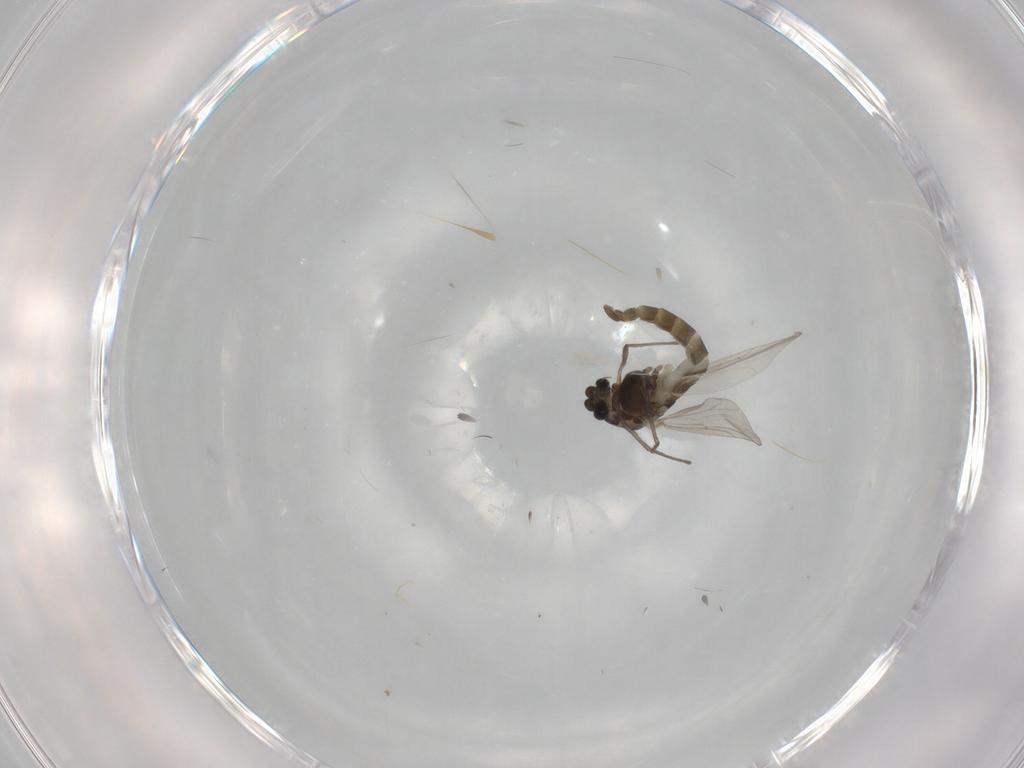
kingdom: Animalia
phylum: Arthropoda
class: Insecta
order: Diptera
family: Chironomidae
